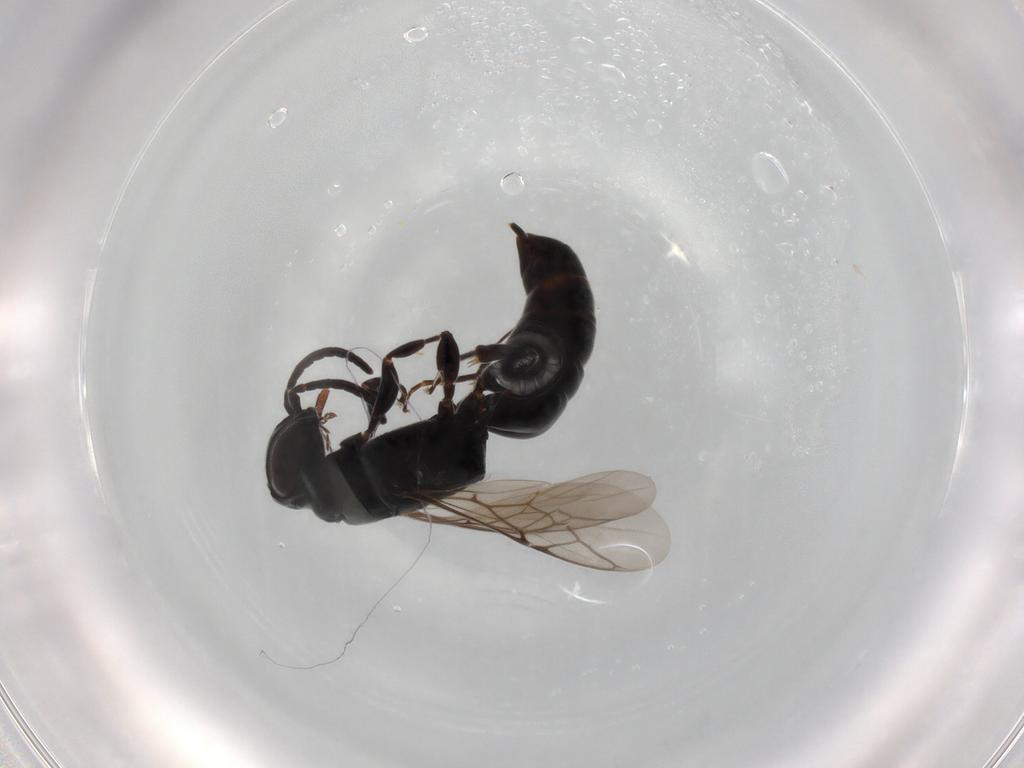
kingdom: Animalia
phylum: Arthropoda
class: Insecta
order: Hymenoptera
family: Crabronidae
